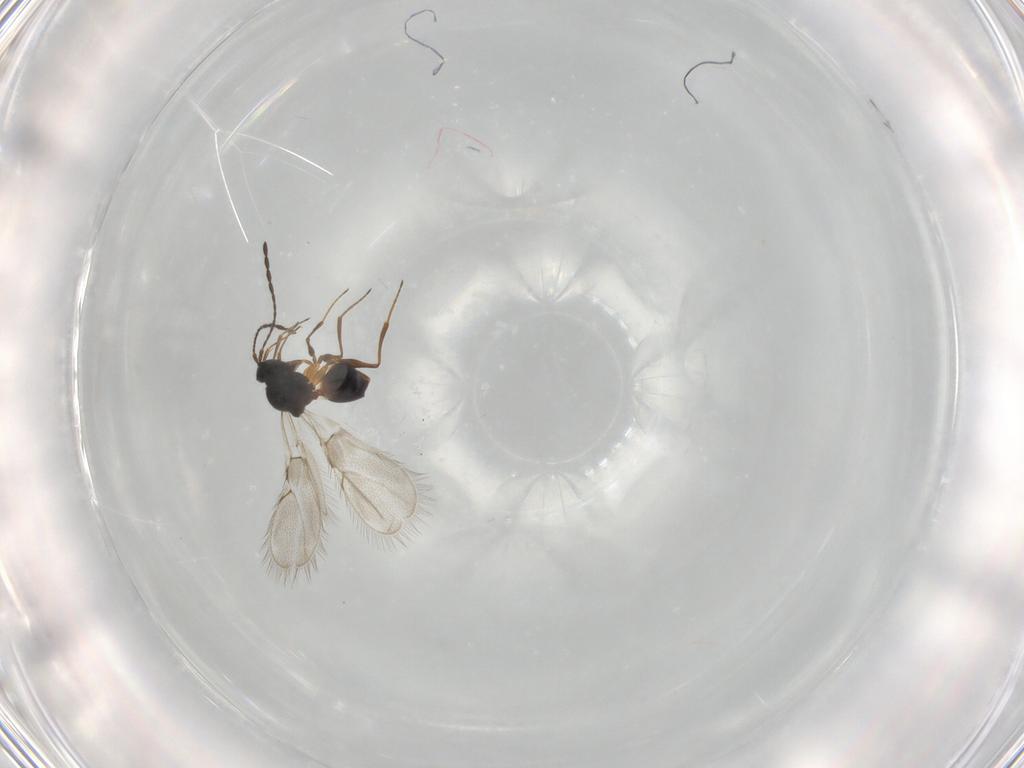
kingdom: Animalia
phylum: Arthropoda
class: Insecta
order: Hymenoptera
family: Figitidae
